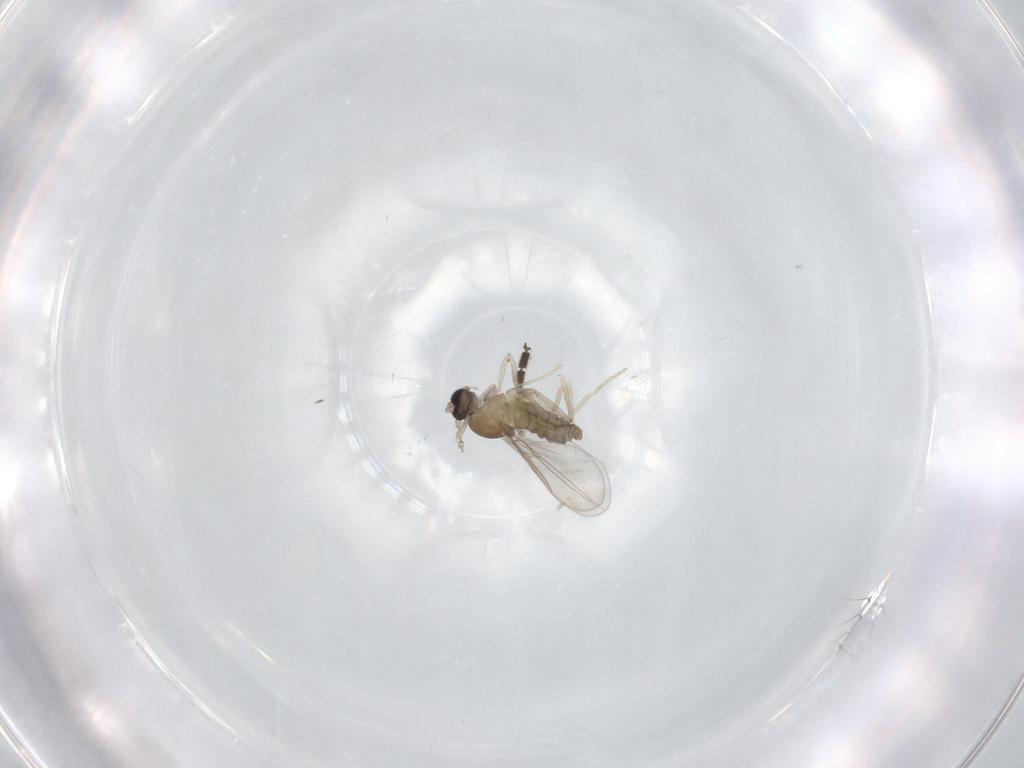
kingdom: Animalia
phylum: Arthropoda
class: Insecta
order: Diptera
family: Cecidomyiidae
